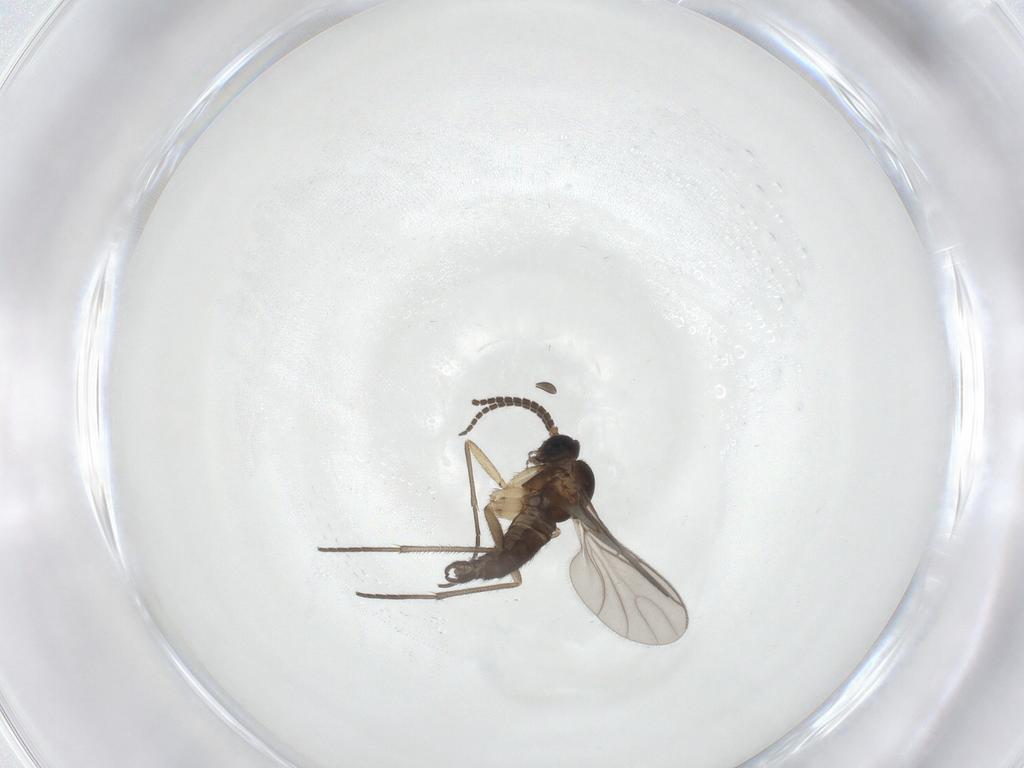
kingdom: Animalia
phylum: Arthropoda
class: Insecta
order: Diptera
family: Sciaridae
